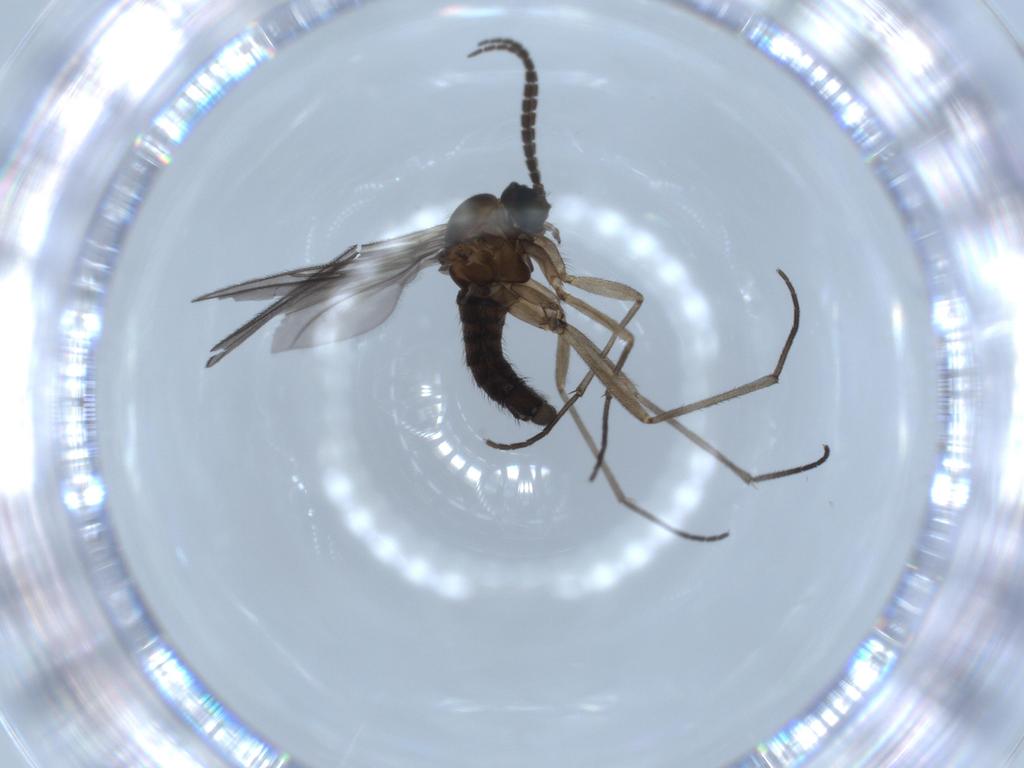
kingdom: Animalia
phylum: Arthropoda
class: Insecta
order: Diptera
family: Sciaridae
